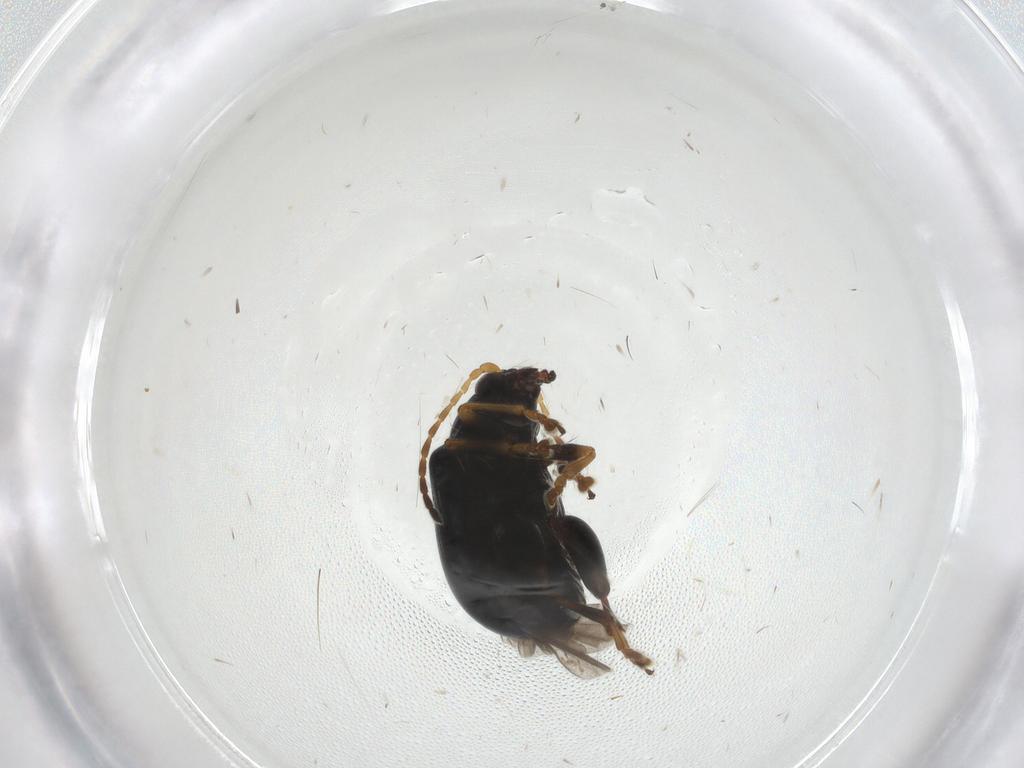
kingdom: Animalia
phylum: Arthropoda
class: Insecta
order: Coleoptera
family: Chrysomelidae
